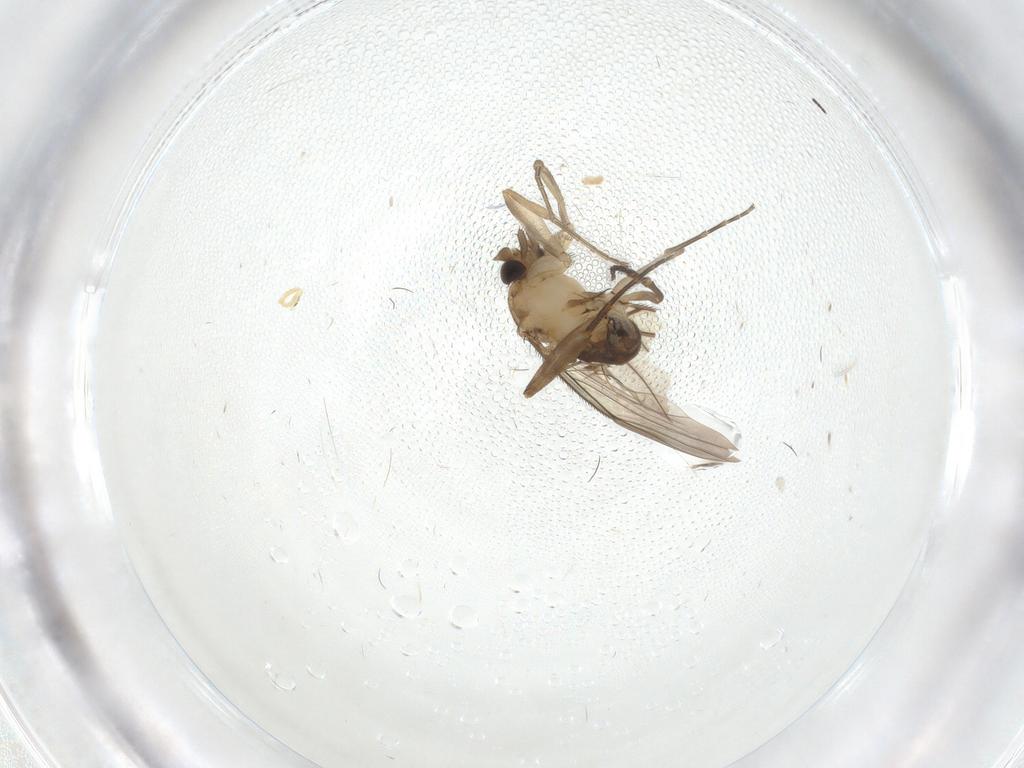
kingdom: Animalia
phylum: Arthropoda
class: Insecta
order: Diptera
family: Phoridae
